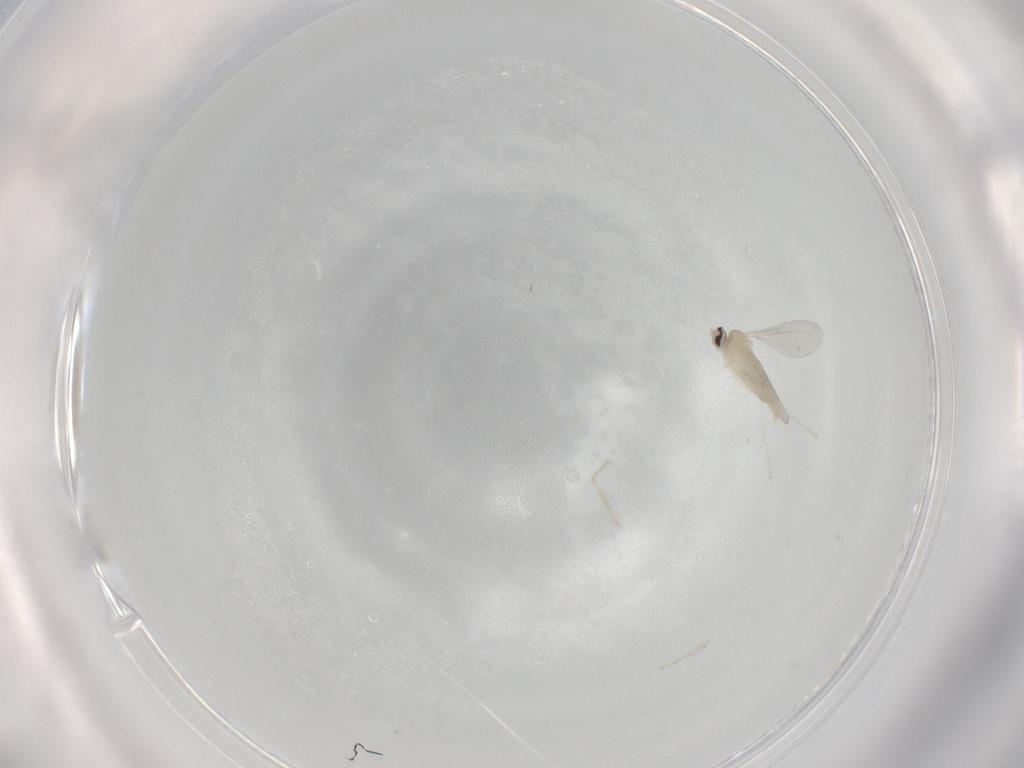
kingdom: Animalia
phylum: Arthropoda
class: Insecta
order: Diptera
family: Cecidomyiidae
